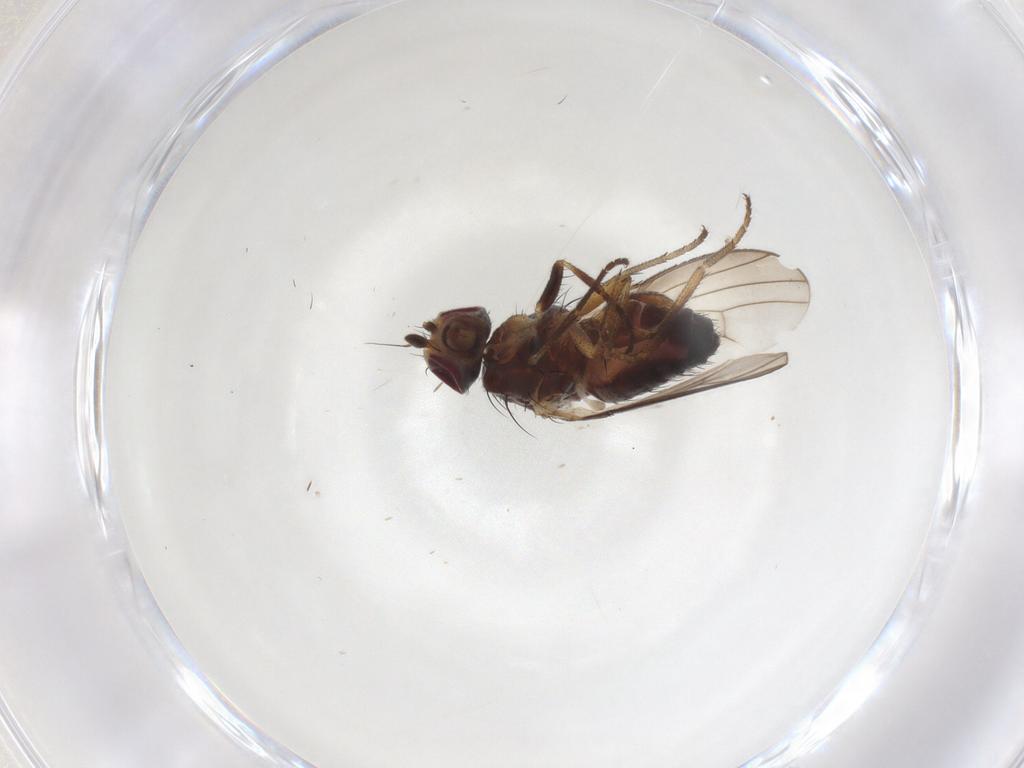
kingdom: Animalia
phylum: Arthropoda
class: Insecta
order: Diptera
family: Heleomyzidae
